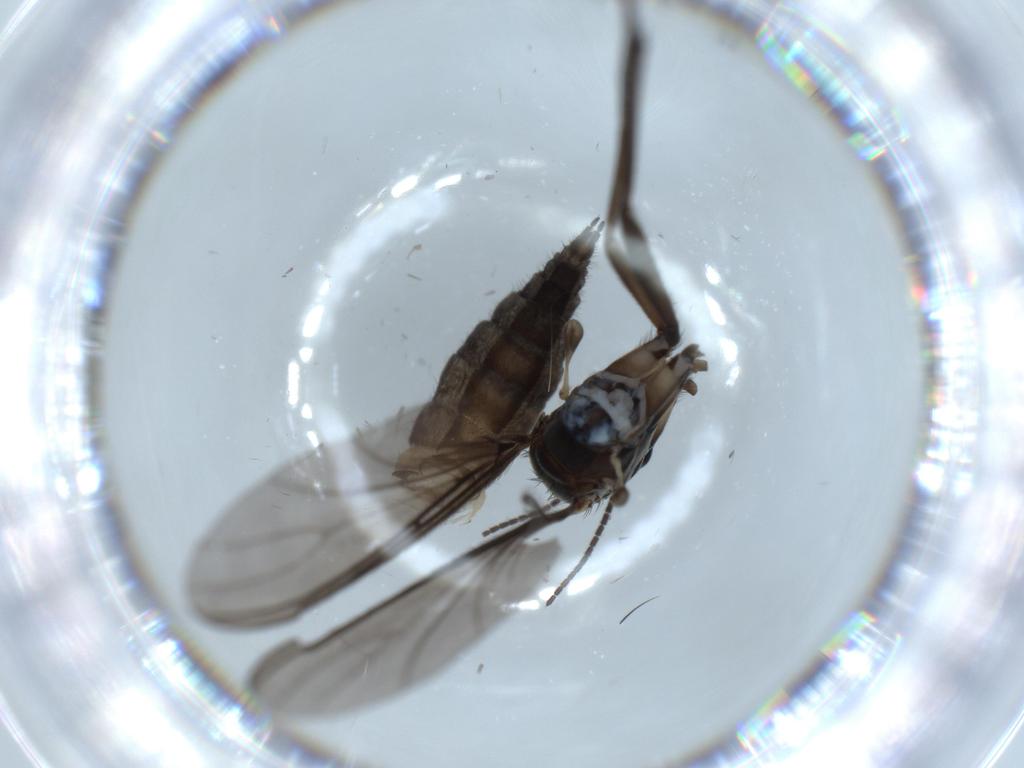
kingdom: Animalia
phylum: Arthropoda
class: Insecta
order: Diptera
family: Sciaridae
